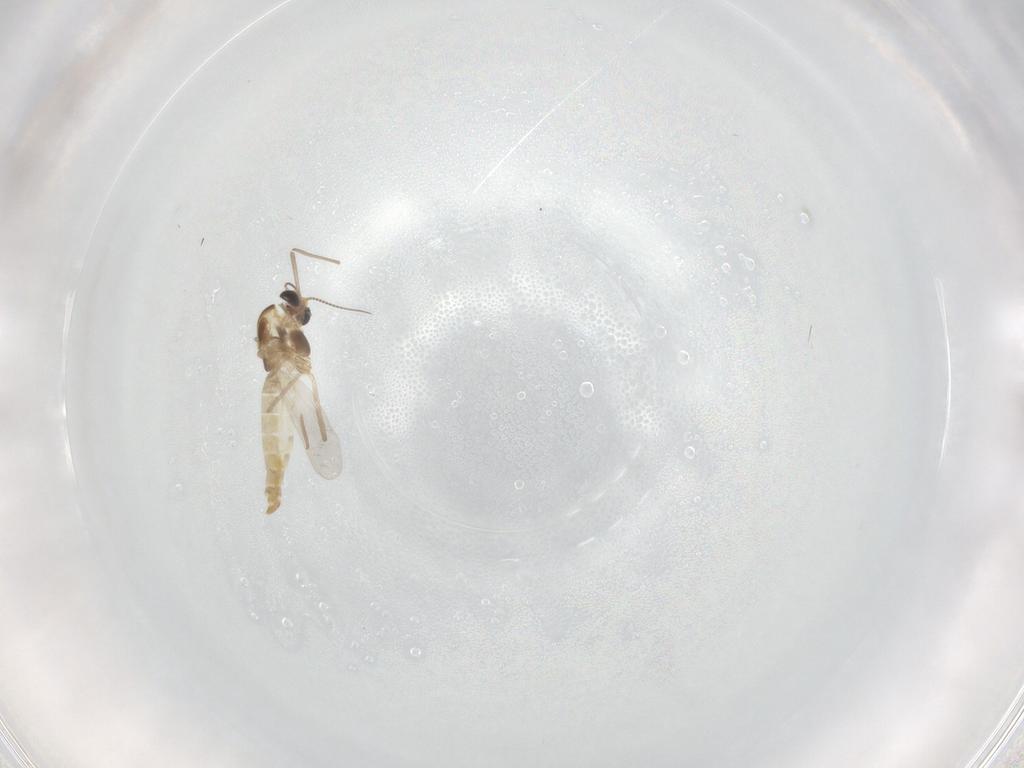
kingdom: Animalia
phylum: Arthropoda
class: Insecta
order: Diptera
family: Chironomidae
